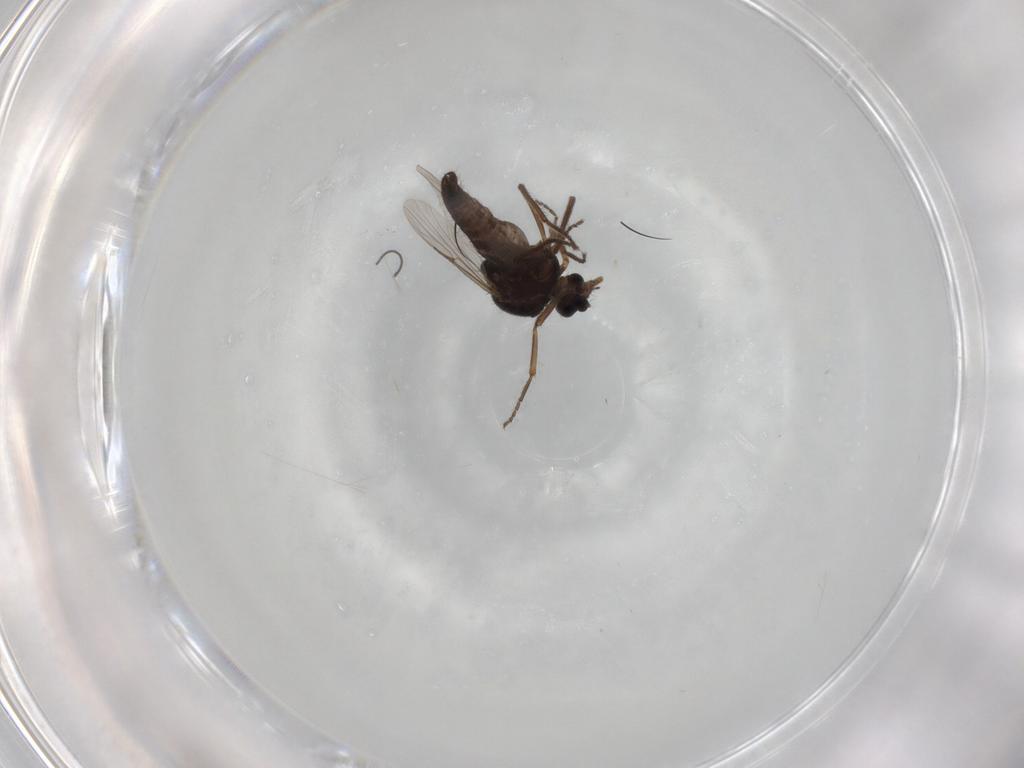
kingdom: Animalia
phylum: Arthropoda
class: Insecta
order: Diptera
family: Ceratopogonidae
